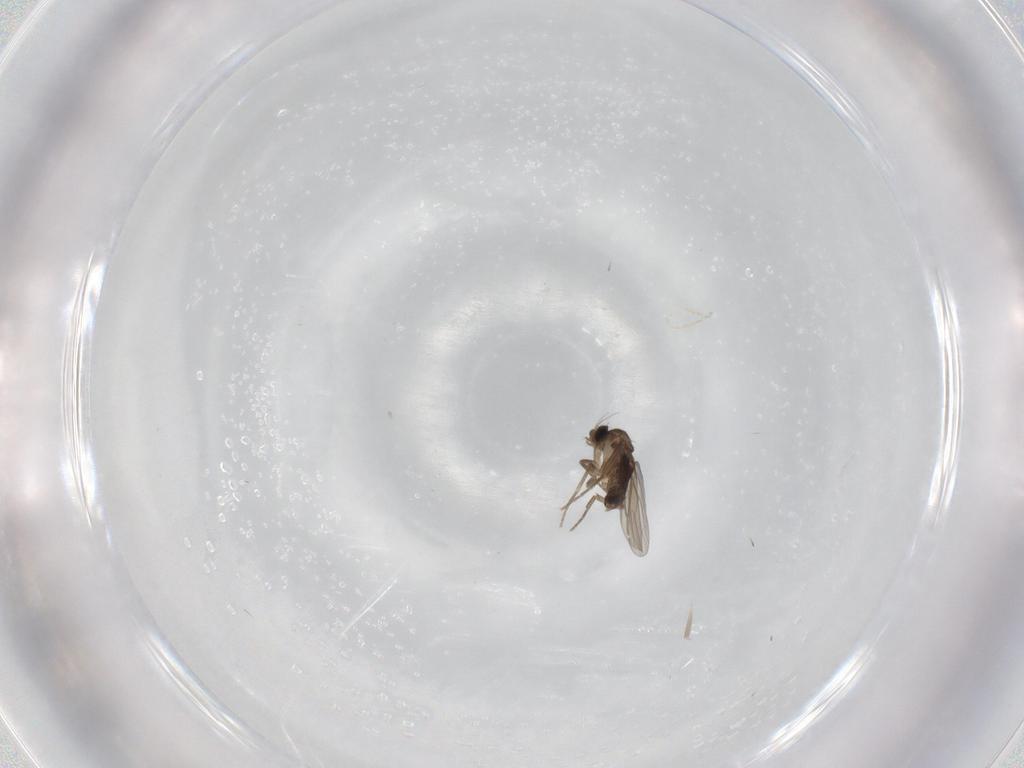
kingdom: Animalia
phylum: Arthropoda
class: Insecta
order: Diptera
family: Phoridae
